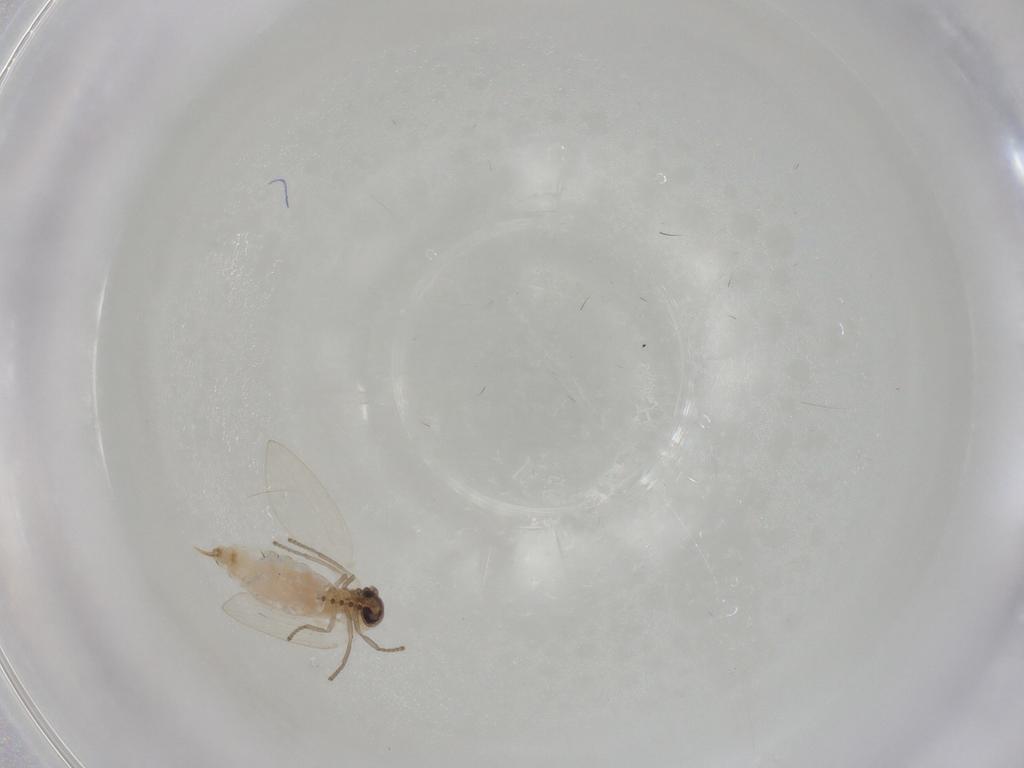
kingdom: Animalia
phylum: Arthropoda
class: Insecta
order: Diptera
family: Psychodidae
